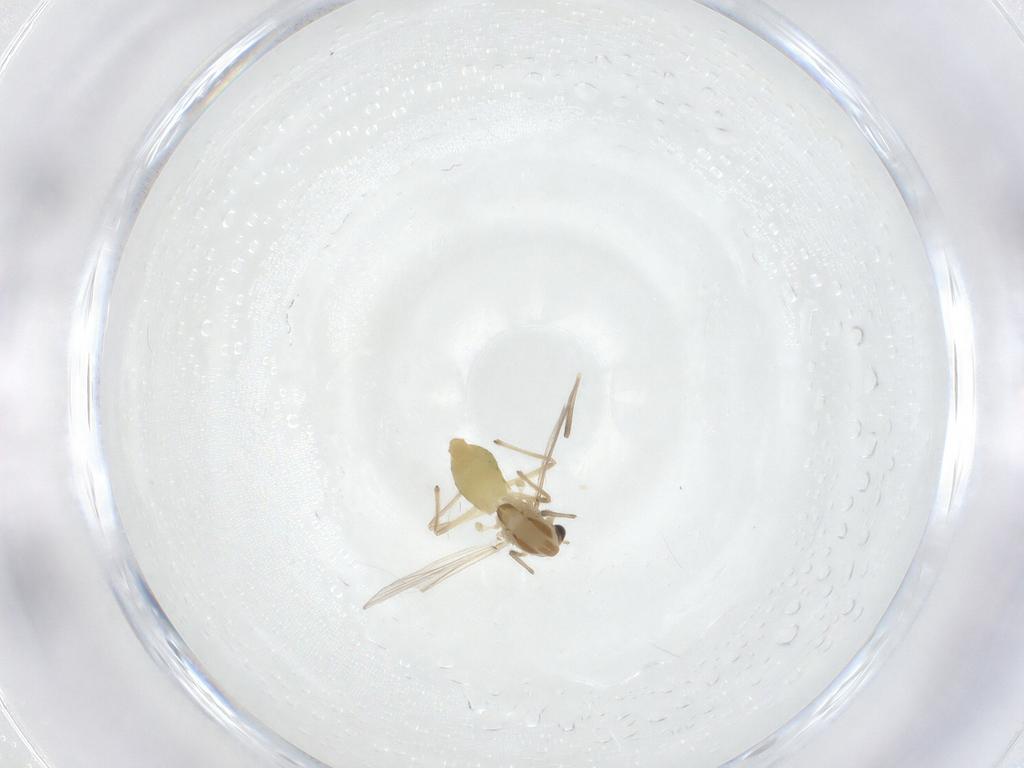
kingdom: Animalia
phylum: Arthropoda
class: Insecta
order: Diptera
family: Chironomidae
